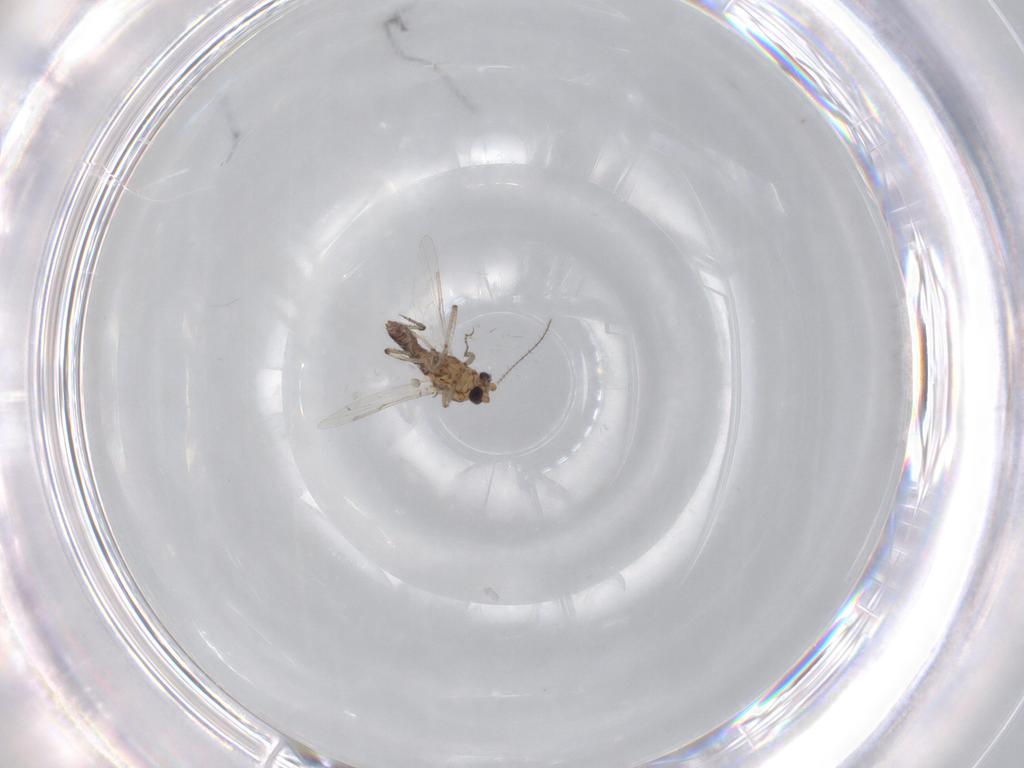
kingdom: Animalia
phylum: Arthropoda
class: Insecta
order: Diptera
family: Ceratopogonidae
